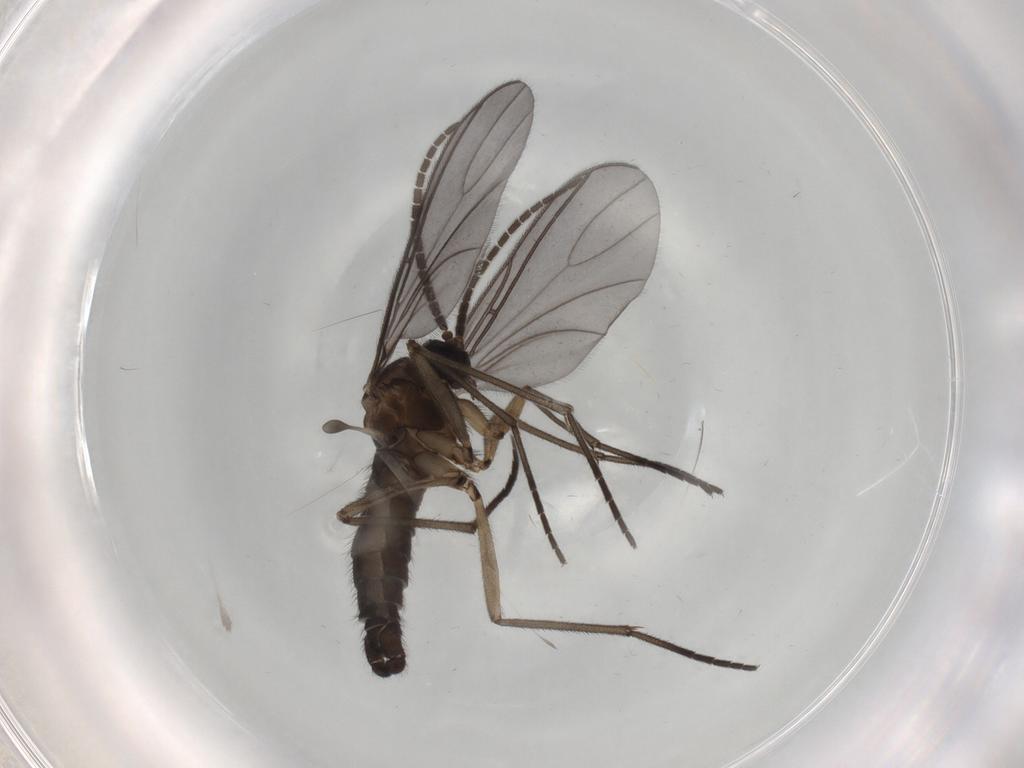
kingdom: Animalia
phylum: Arthropoda
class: Insecta
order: Diptera
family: Sciaridae
